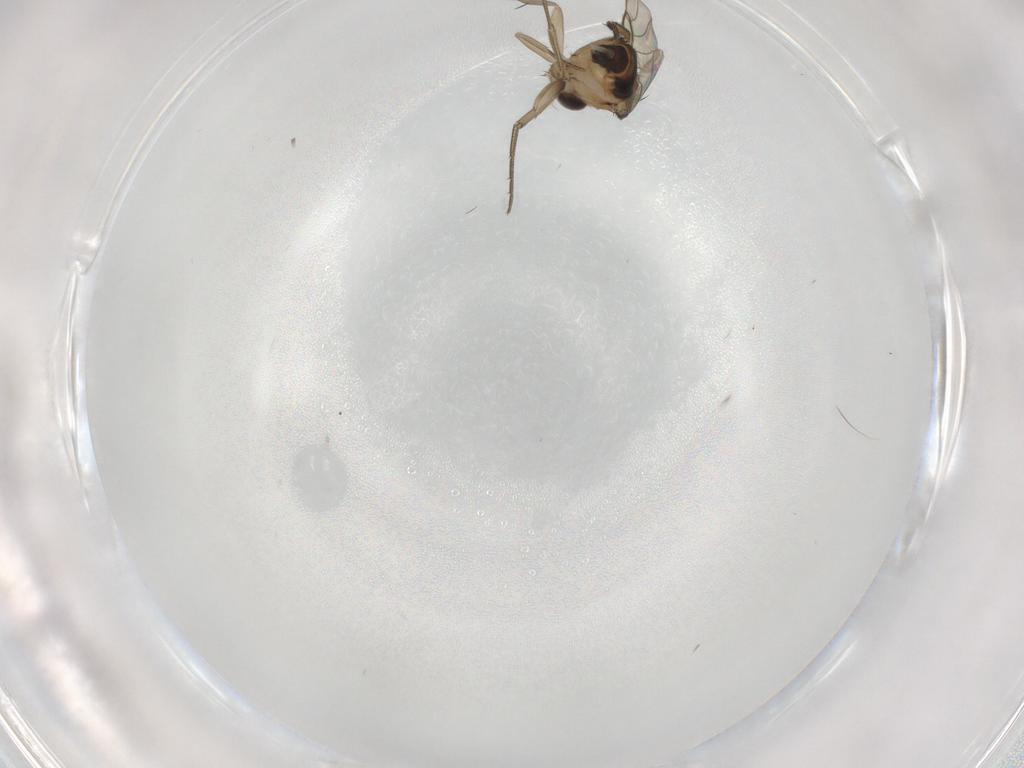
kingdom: Animalia
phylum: Arthropoda
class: Insecta
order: Diptera
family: Phoridae
